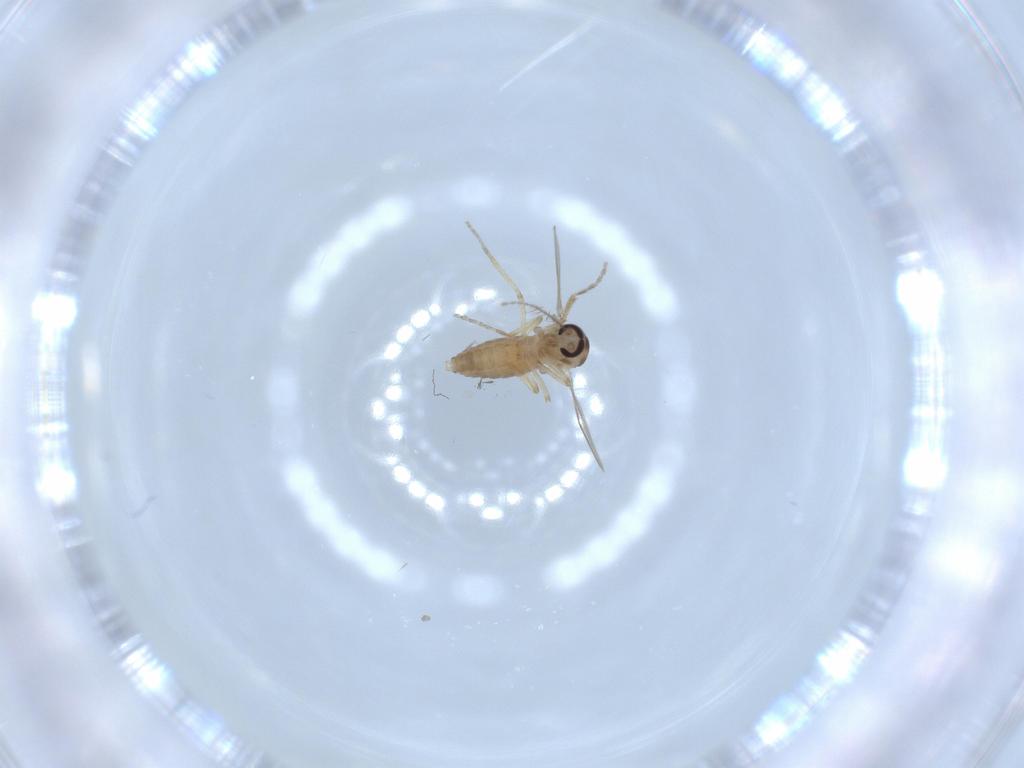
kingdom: Animalia
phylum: Arthropoda
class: Insecta
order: Diptera
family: Ceratopogonidae
